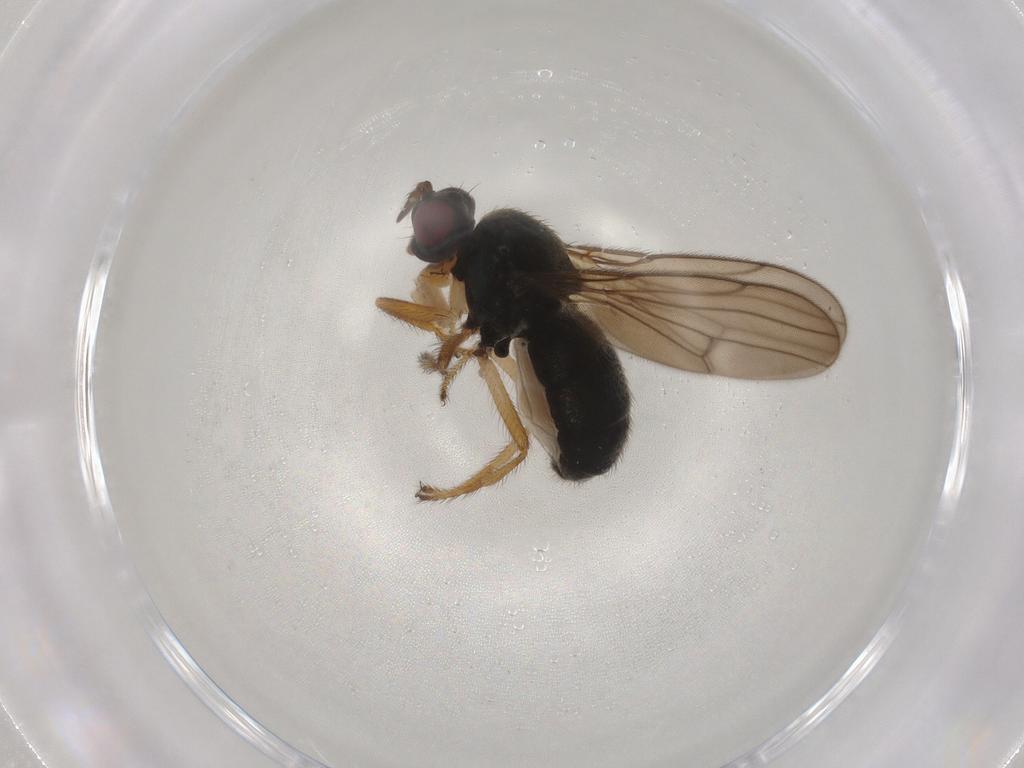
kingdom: Animalia
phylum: Arthropoda
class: Insecta
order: Diptera
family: Ephydridae
